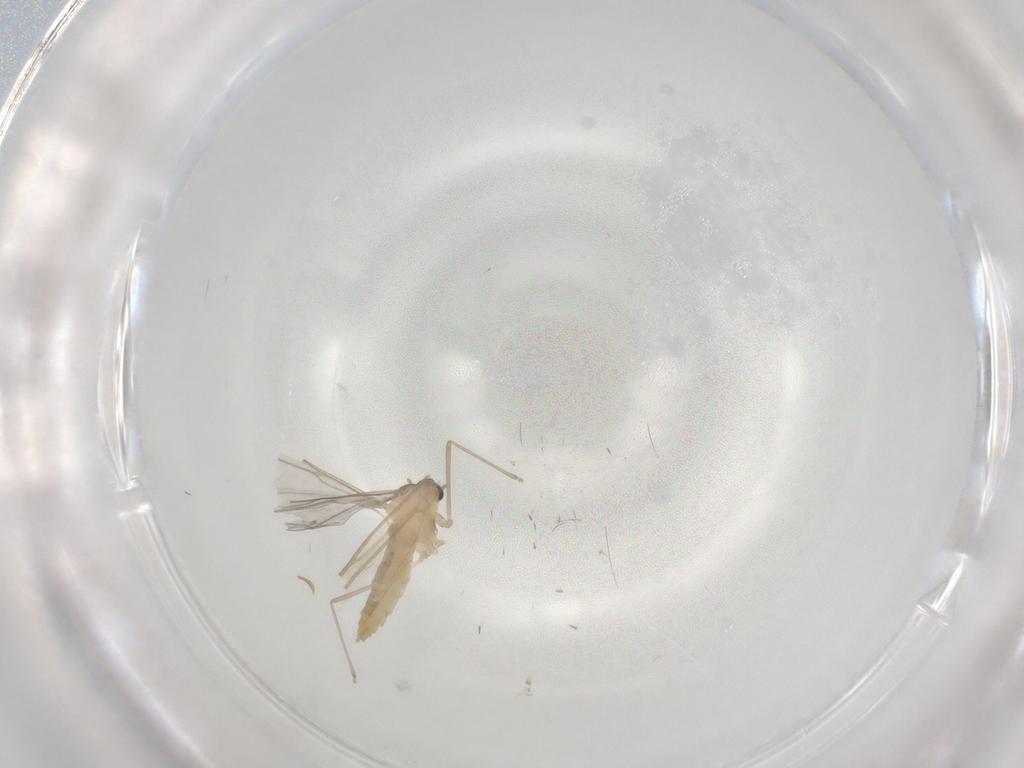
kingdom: Animalia
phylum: Arthropoda
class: Insecta
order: Diptera
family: Cecidomyiidae
